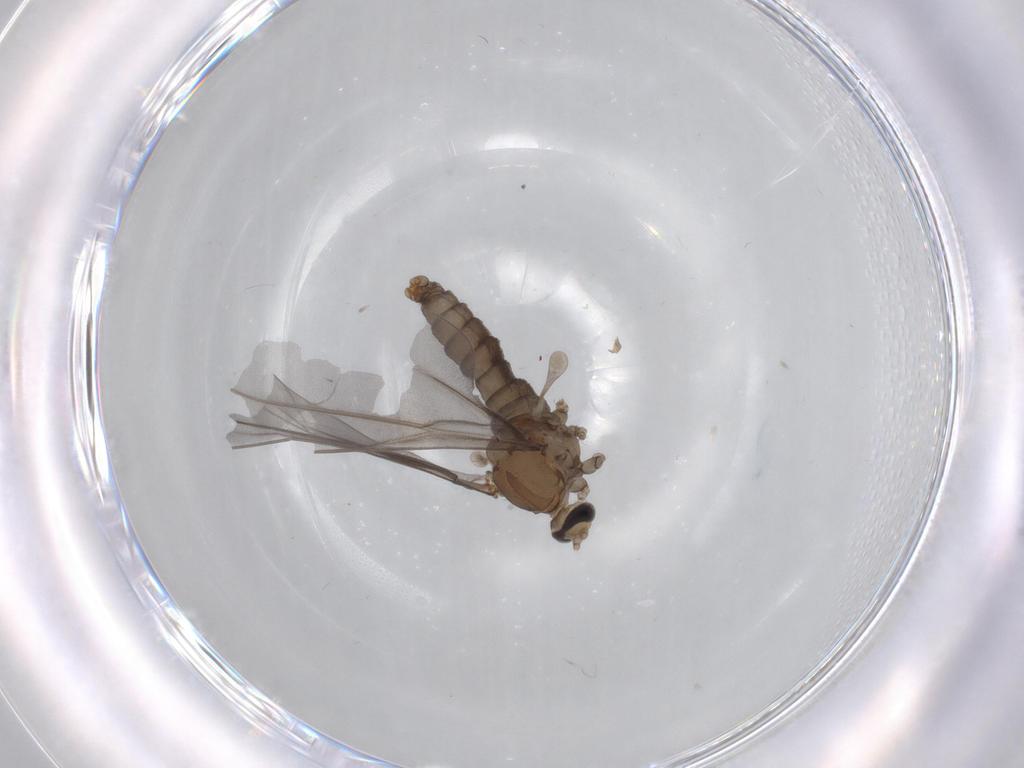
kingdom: Animalia
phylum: Arthropoda
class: Insecta
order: Diptera
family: Cecidomyiidae
